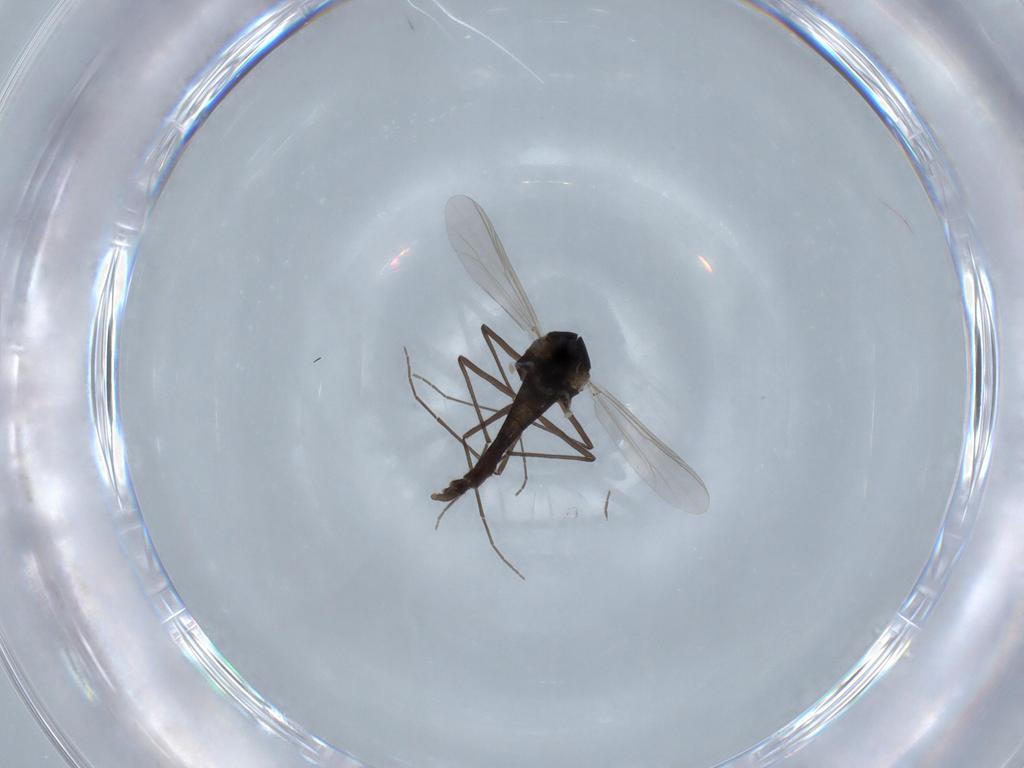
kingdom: Animalia
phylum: Arthropoda
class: Insecta
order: Diptera
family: Chironomidae
